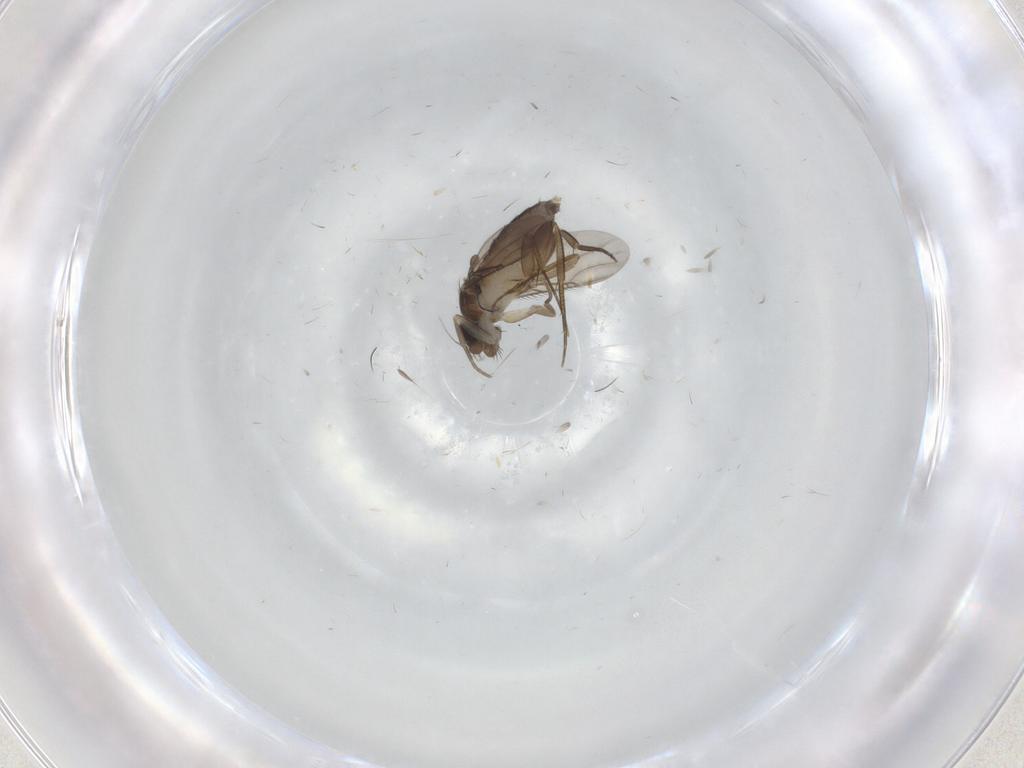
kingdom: Animalia
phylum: Arthropoda
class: Insecta
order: Diptera
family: Phoridae
